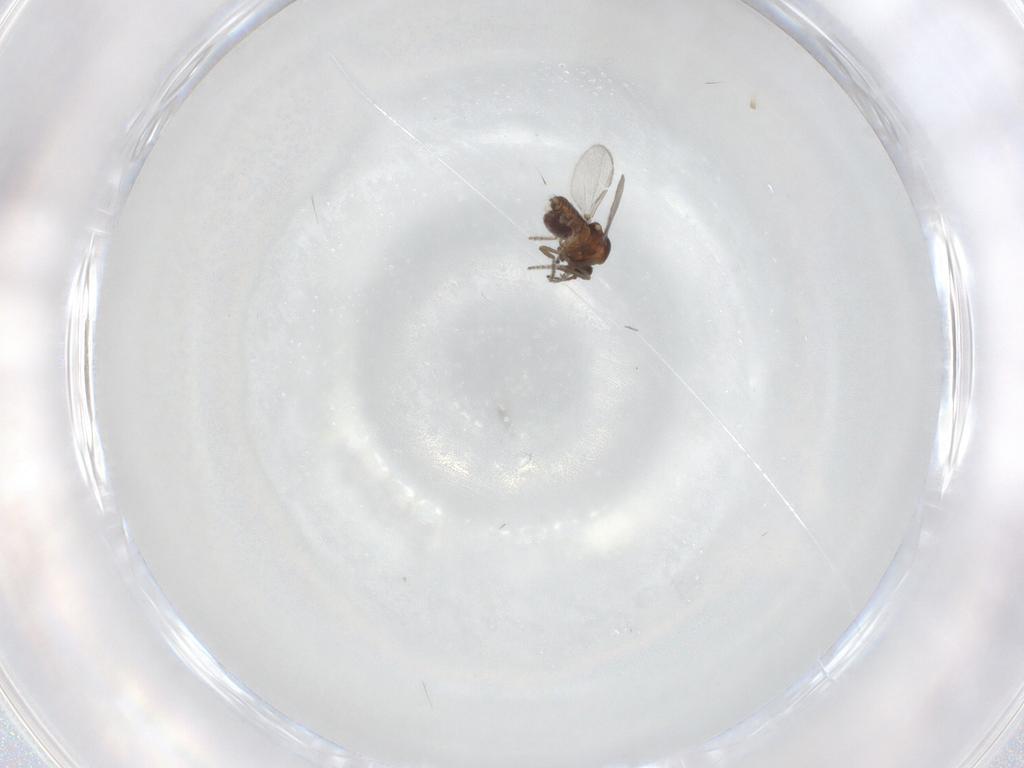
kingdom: Animalia
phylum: Arthropoda
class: Insecta
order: Diptera
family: Ceratopogonidae
